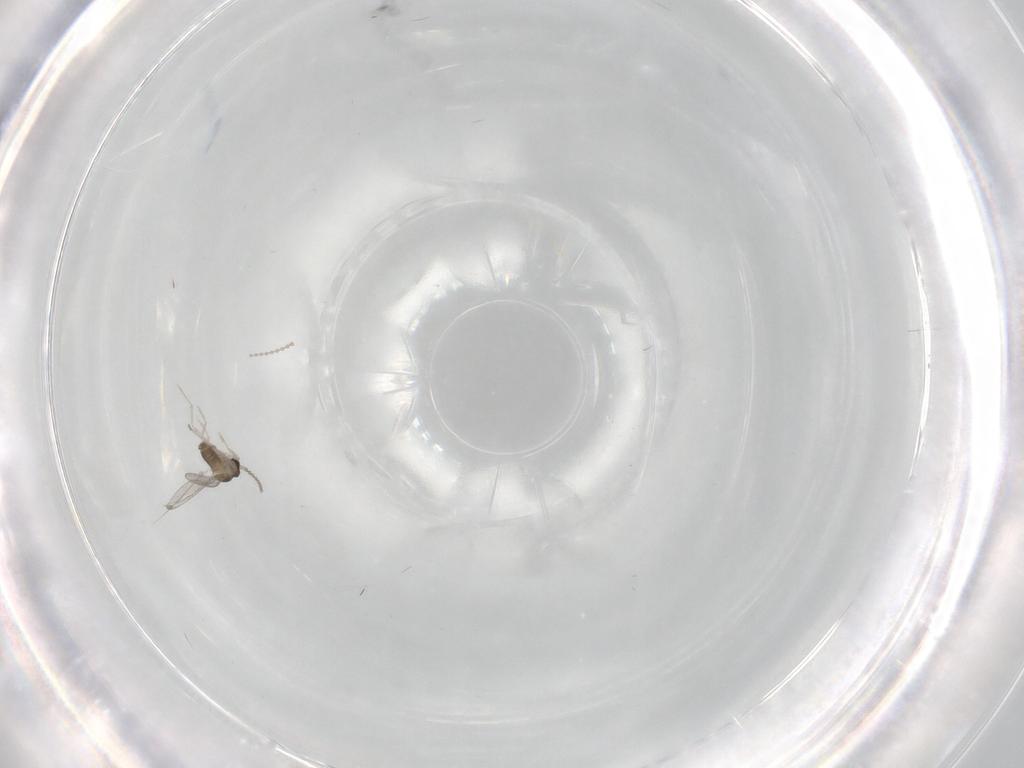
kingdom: Animalia
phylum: Arthropoda
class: Insecta
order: Diptera
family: Cecidomyiidae
